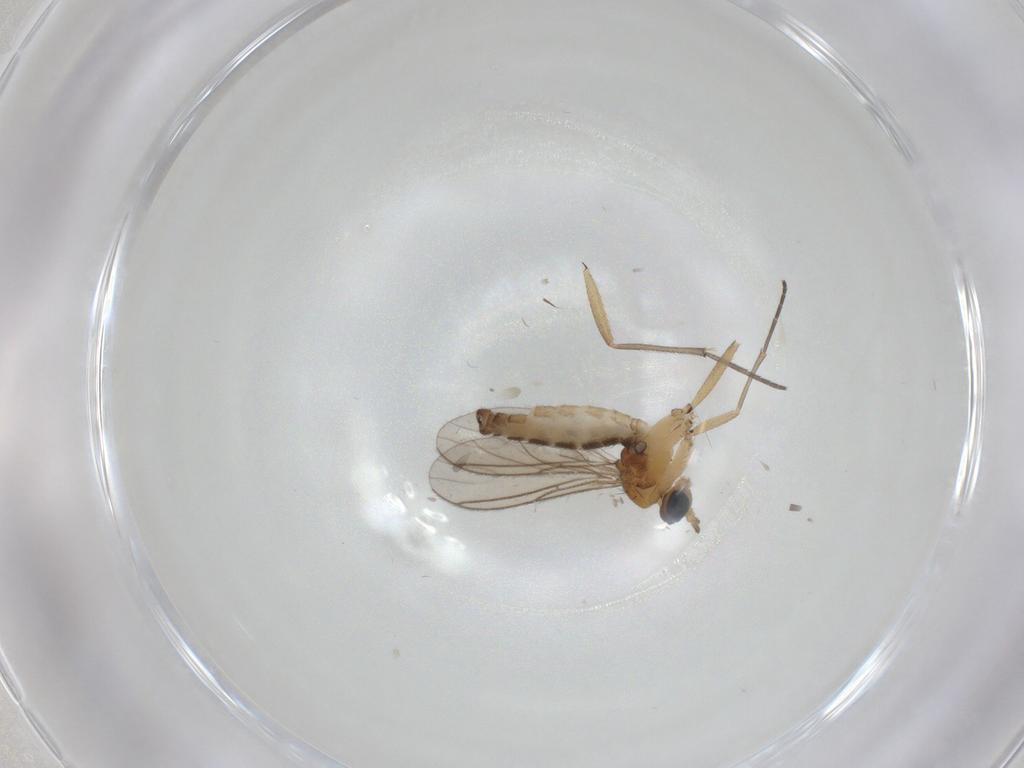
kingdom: Animalia
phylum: Arthropoda
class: Insecta
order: Diptera
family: Sciaridae
